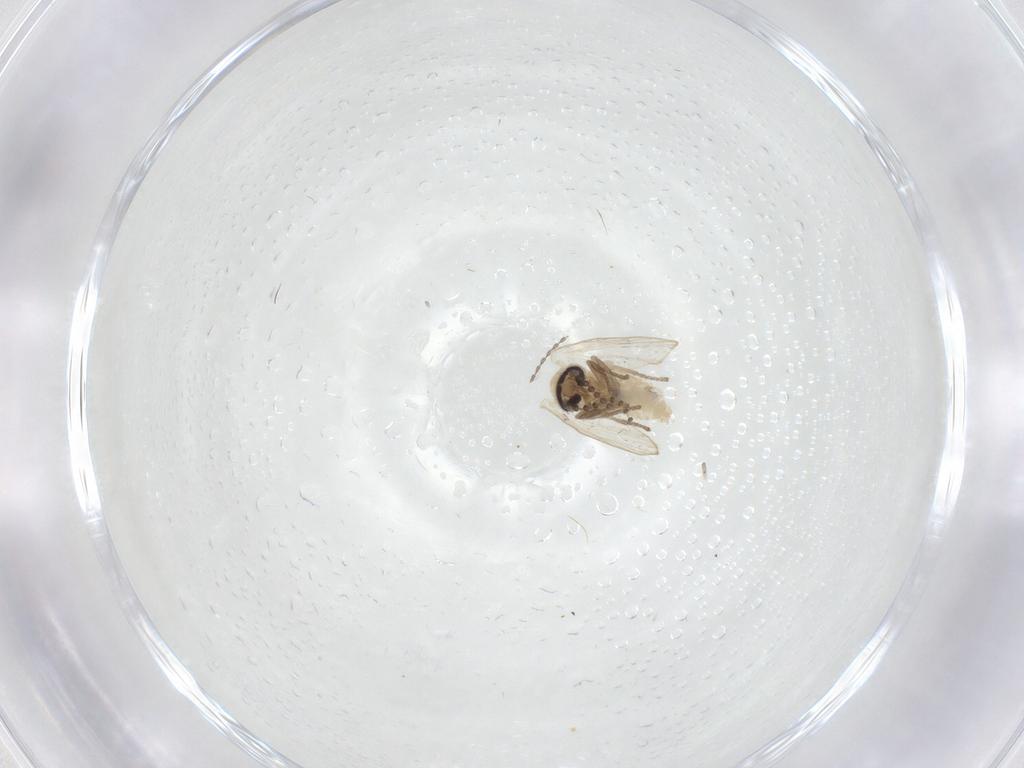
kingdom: Animalia
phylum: Arthropoda
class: Insecta
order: Diptera
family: Psychodidae
